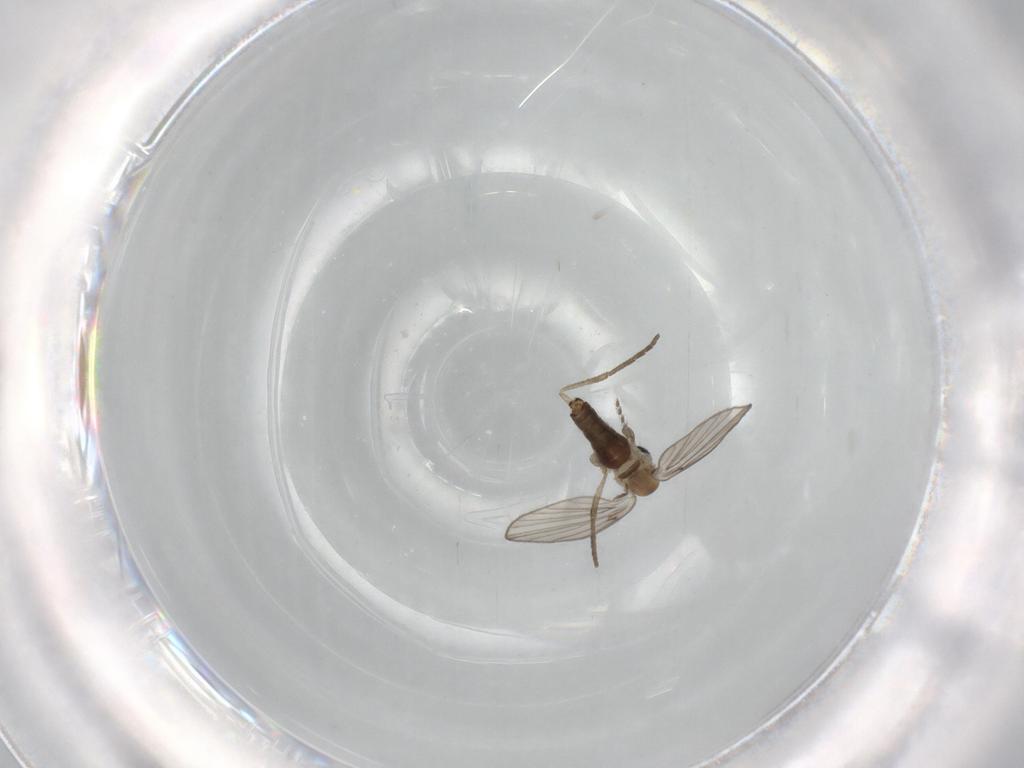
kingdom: Animalia
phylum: Arthropoda
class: Insecta
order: Diptera
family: Psychodidae
